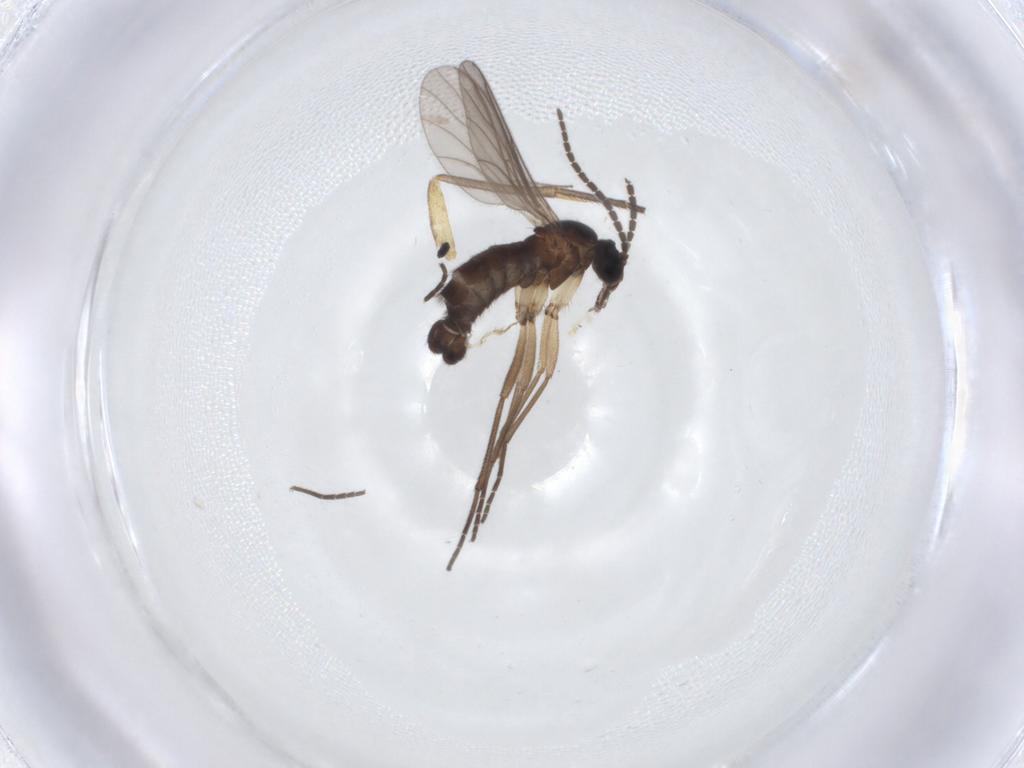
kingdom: Animalia
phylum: Arthropoda
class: Insecta
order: Diptera
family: Sciaridae
